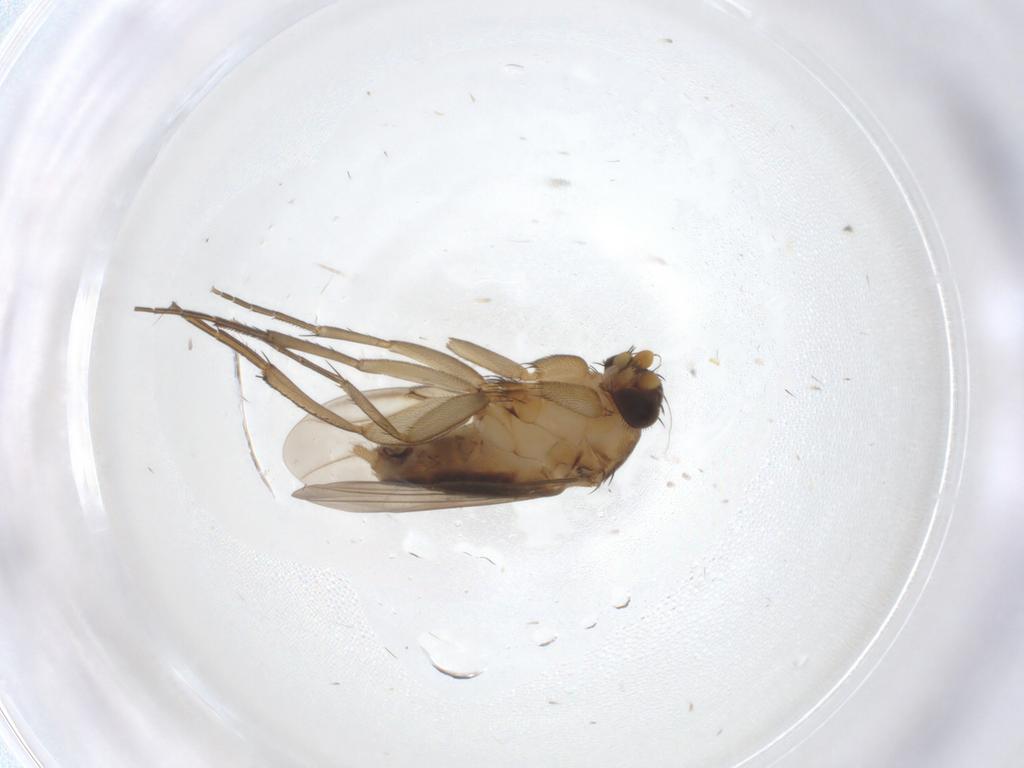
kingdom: Animalia
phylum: Arthropoda
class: Insecta
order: Diptera
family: Phoridae
